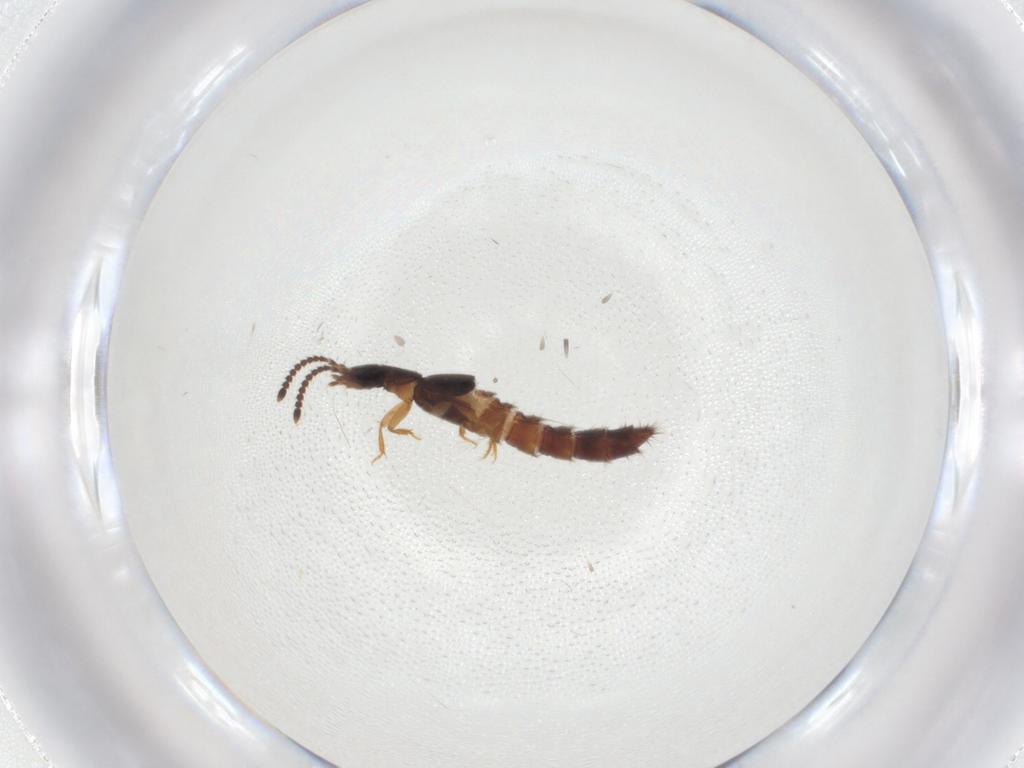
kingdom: Animalia
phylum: Arthropoda
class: Insecta
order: Coleoptera
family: Staphylinidae
